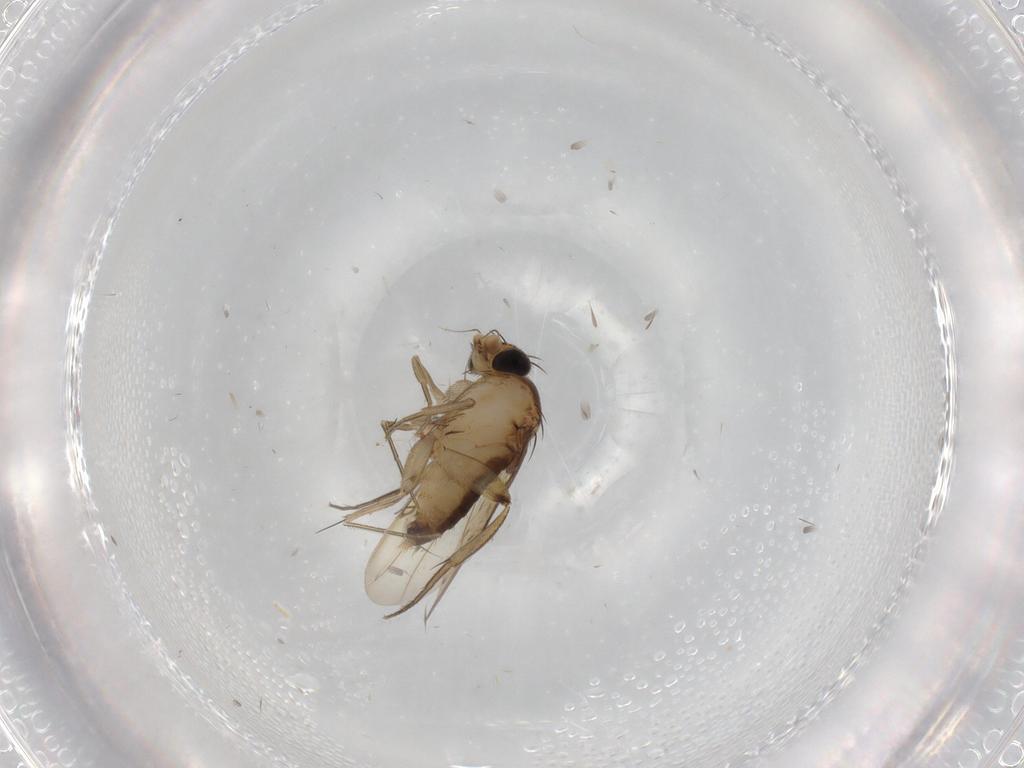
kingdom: Animalia
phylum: Arthropoda
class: Insecta
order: Diptera
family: Phoridae
